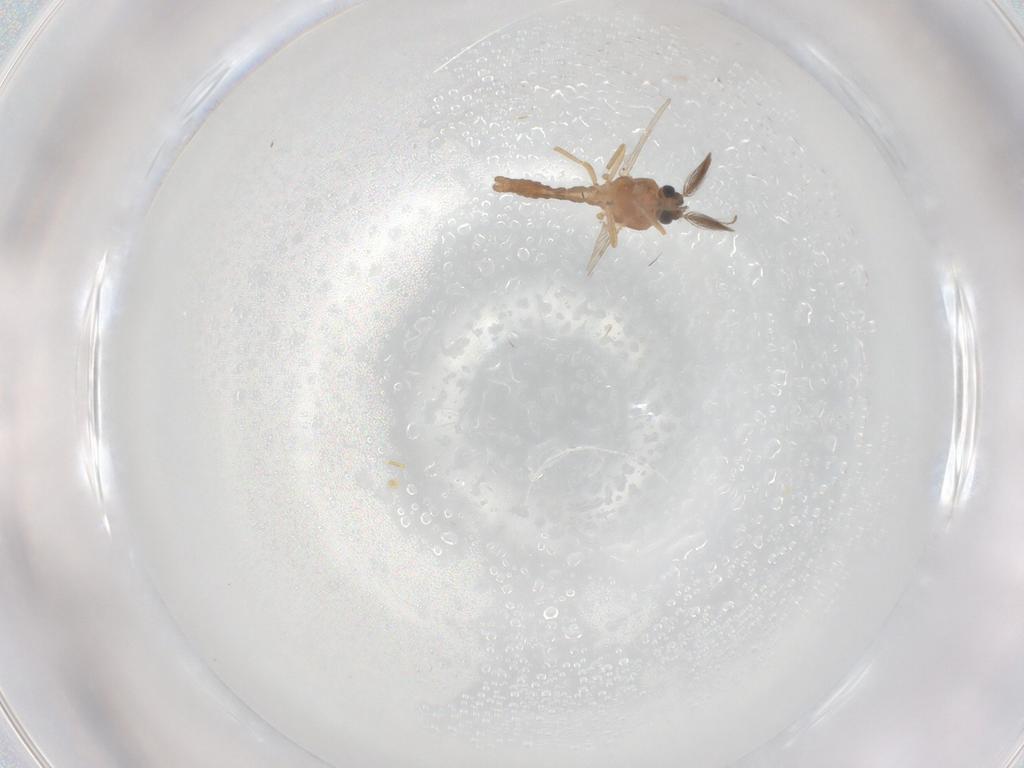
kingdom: Animalia
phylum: Arthropoda
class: Insecta
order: Diptera
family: Ceratopogonidae
